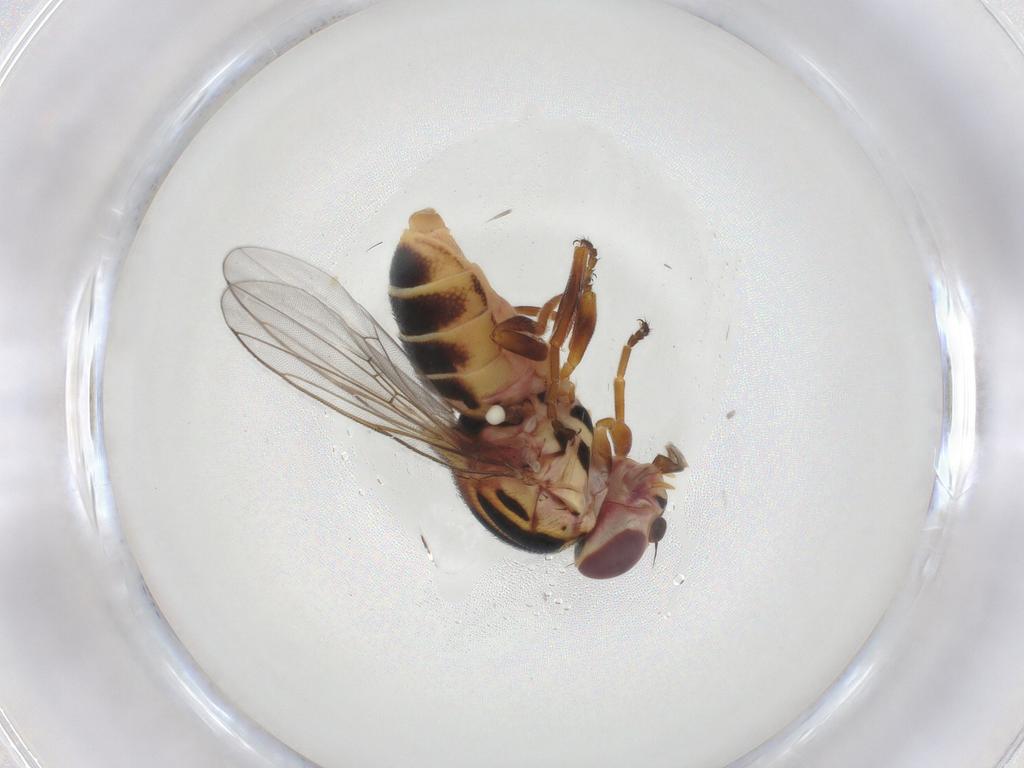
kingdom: Animalia
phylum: Arthropoda
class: Insecta
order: Diptera
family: Chloropidae
